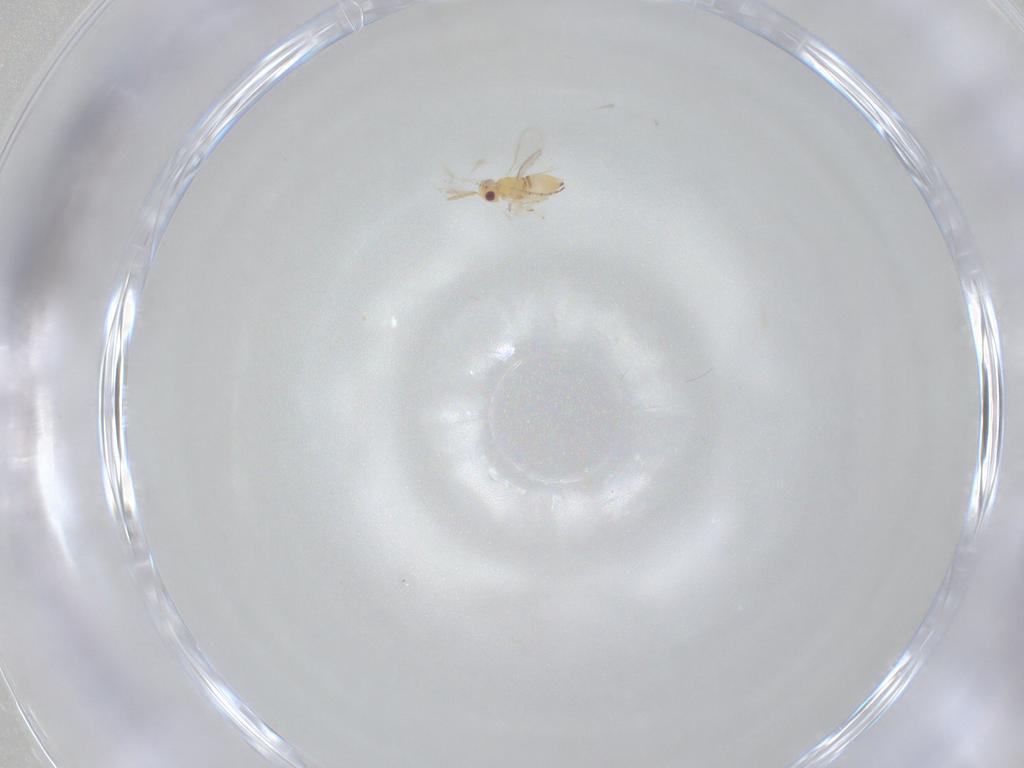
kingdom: Animalia
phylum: Arthropoda
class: Insecta
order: Hymenoptera
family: Aphelinidae
